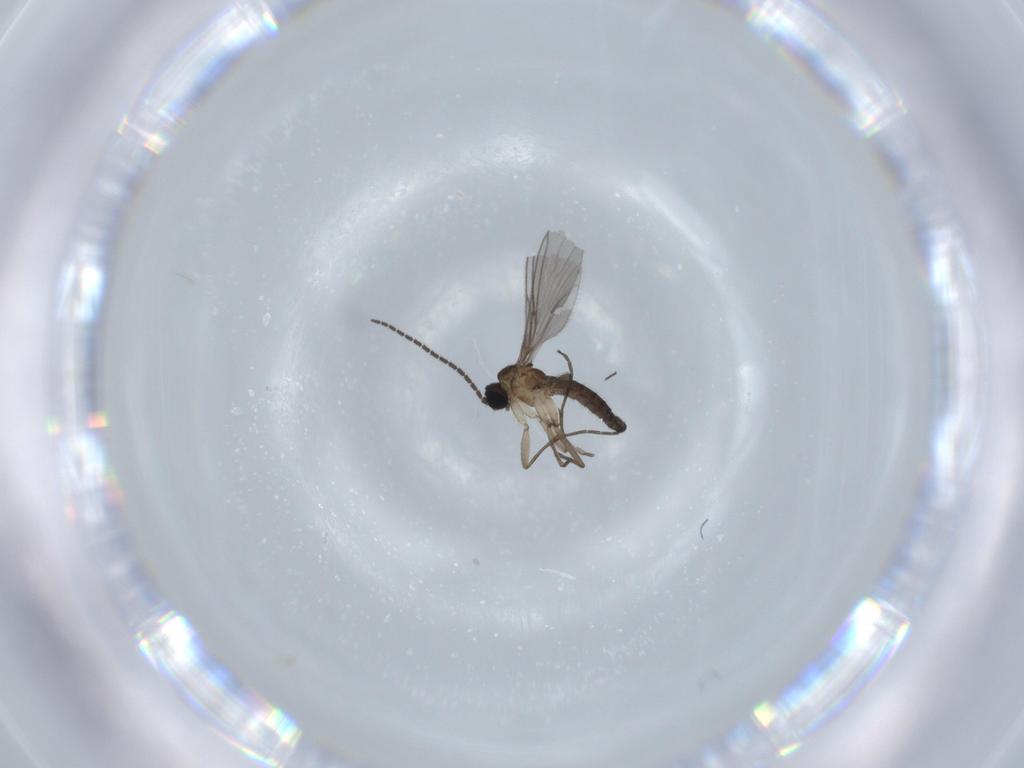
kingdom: Animalia
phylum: Arthropoda
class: Insecta
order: Diptera
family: Sciaridae
